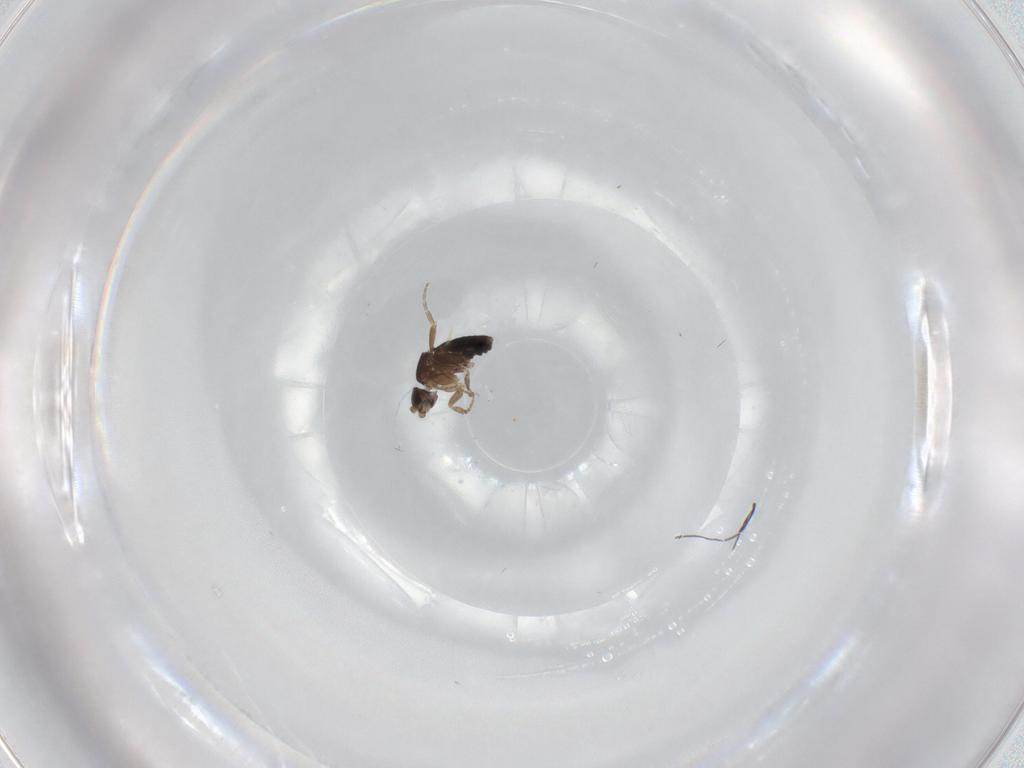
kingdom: Animalia
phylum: Arthropoda
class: Insecta
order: Diptera
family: Phoridae
